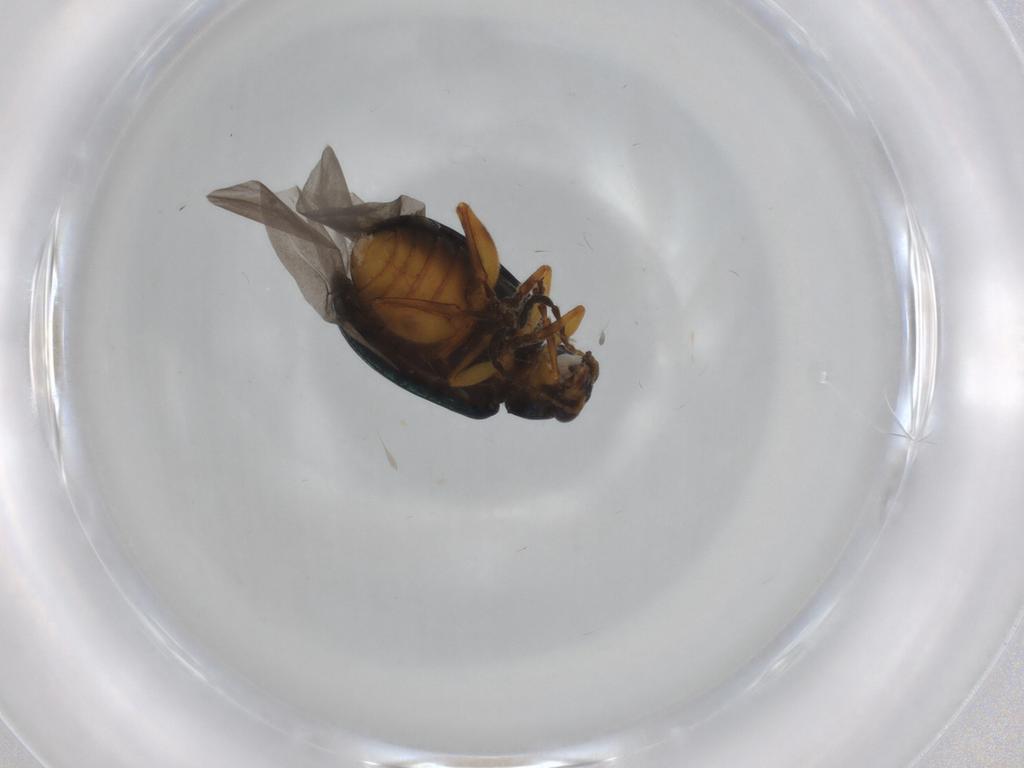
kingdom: Animalia
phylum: Arthropoda
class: Insecta
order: Coleoptera
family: Chrysomelidae
